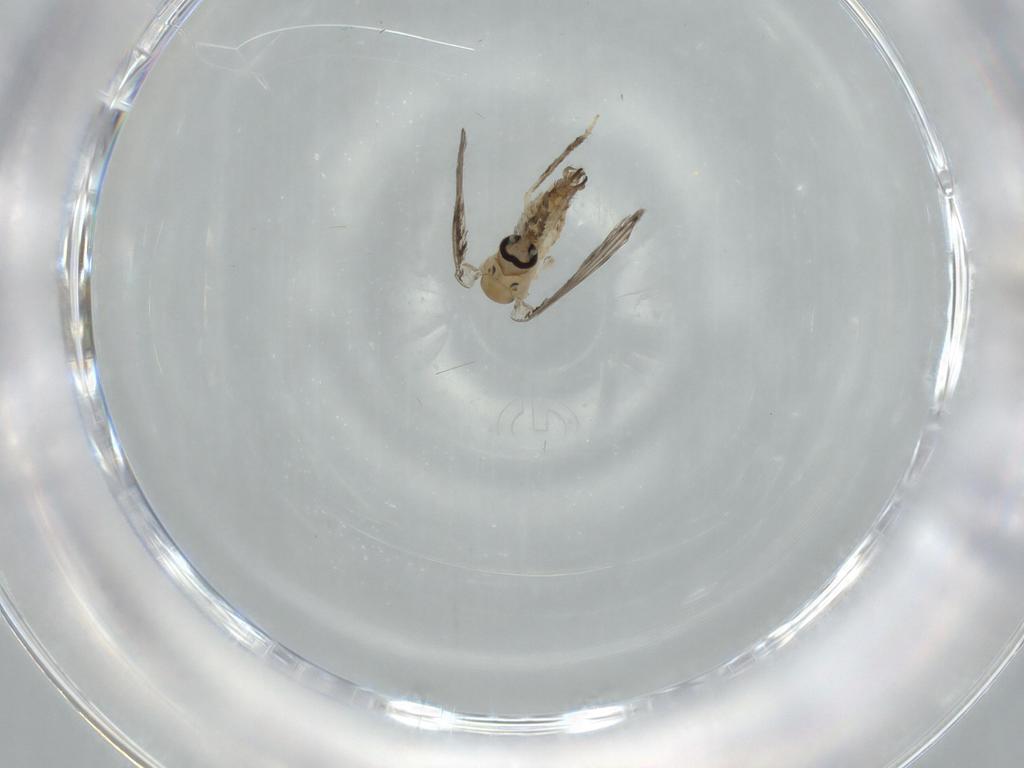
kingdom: Animalia
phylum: Arthropoda
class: Insecta
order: Diptera
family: Psychodidae
